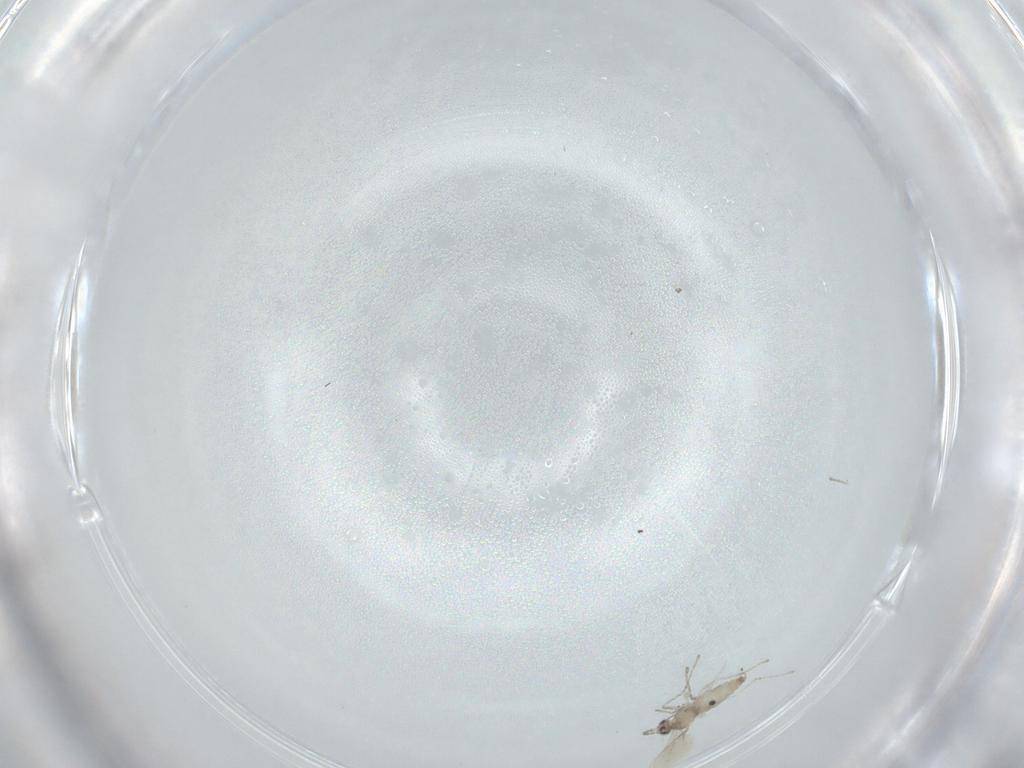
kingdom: Animalia
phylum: Arthropoda
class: Insecta
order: Diptera
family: Cecidomyiidae
